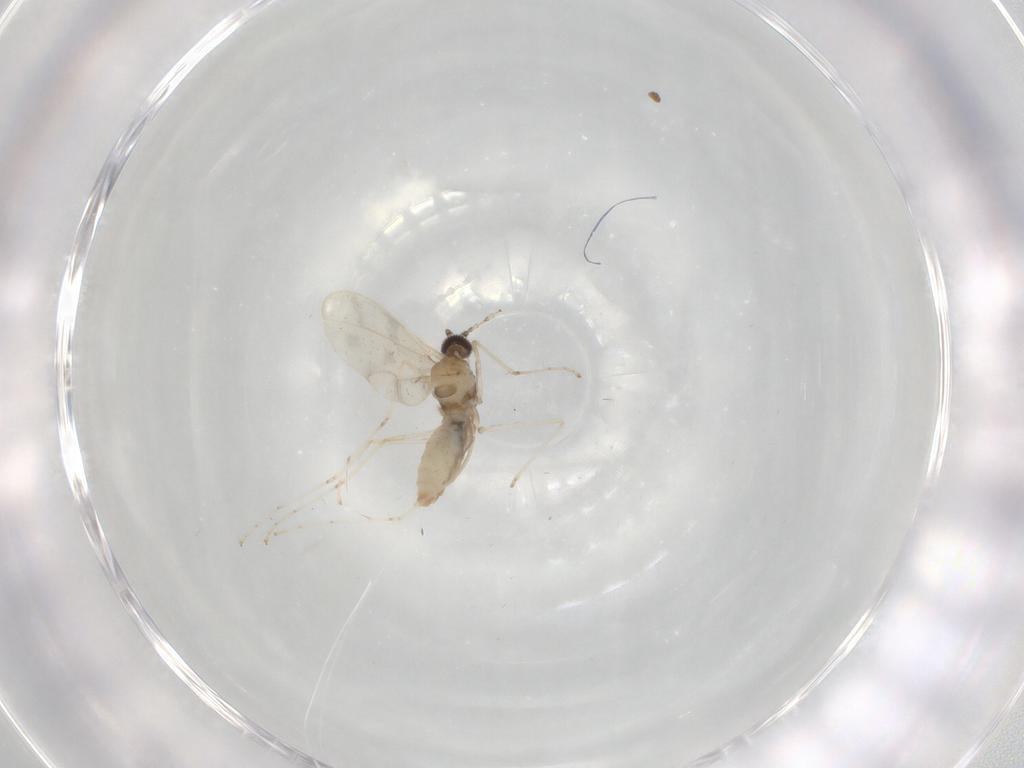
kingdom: Animalia
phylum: Arthropoda
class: Insecta
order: Diptera
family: Cecidomyiidae
